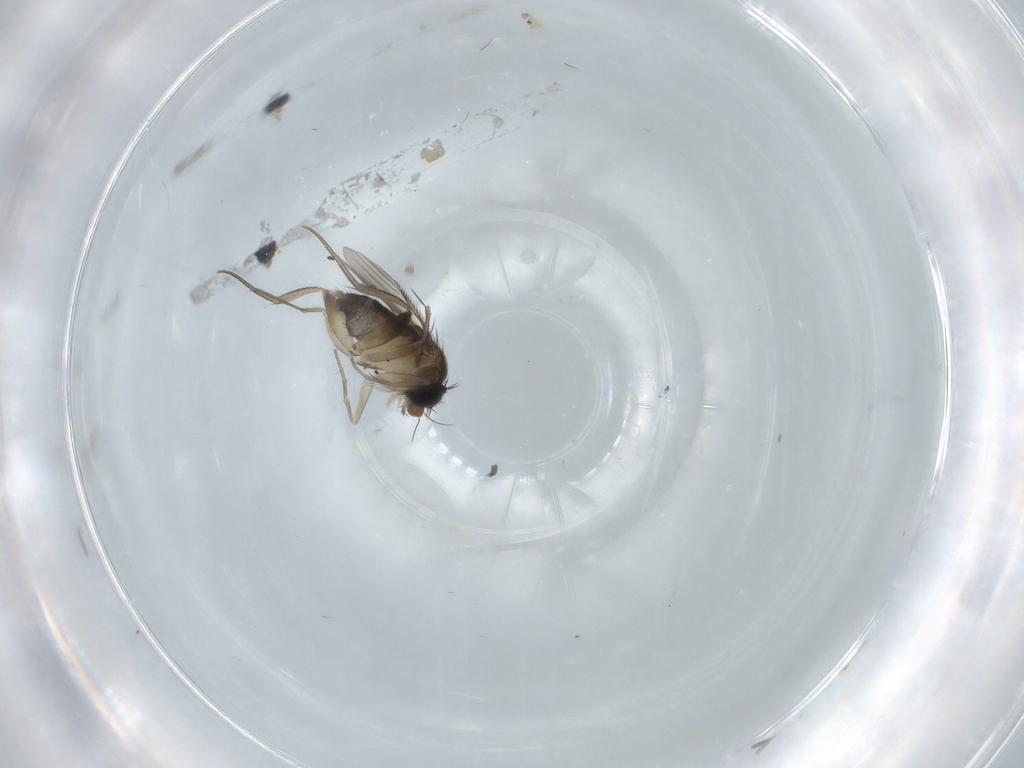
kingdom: Animalia
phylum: Arthropoda
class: Insecta
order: Diptera
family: Phoridae
